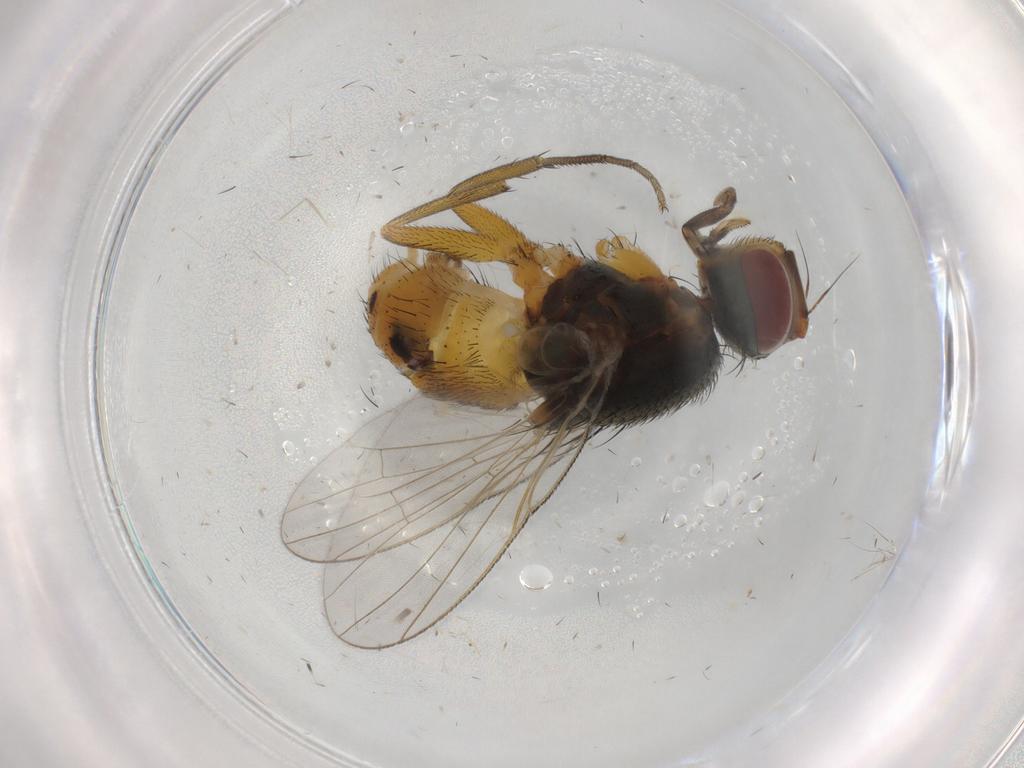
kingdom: Animalia
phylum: Arthropoda
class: Insecta
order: Diptera
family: Muscidae
